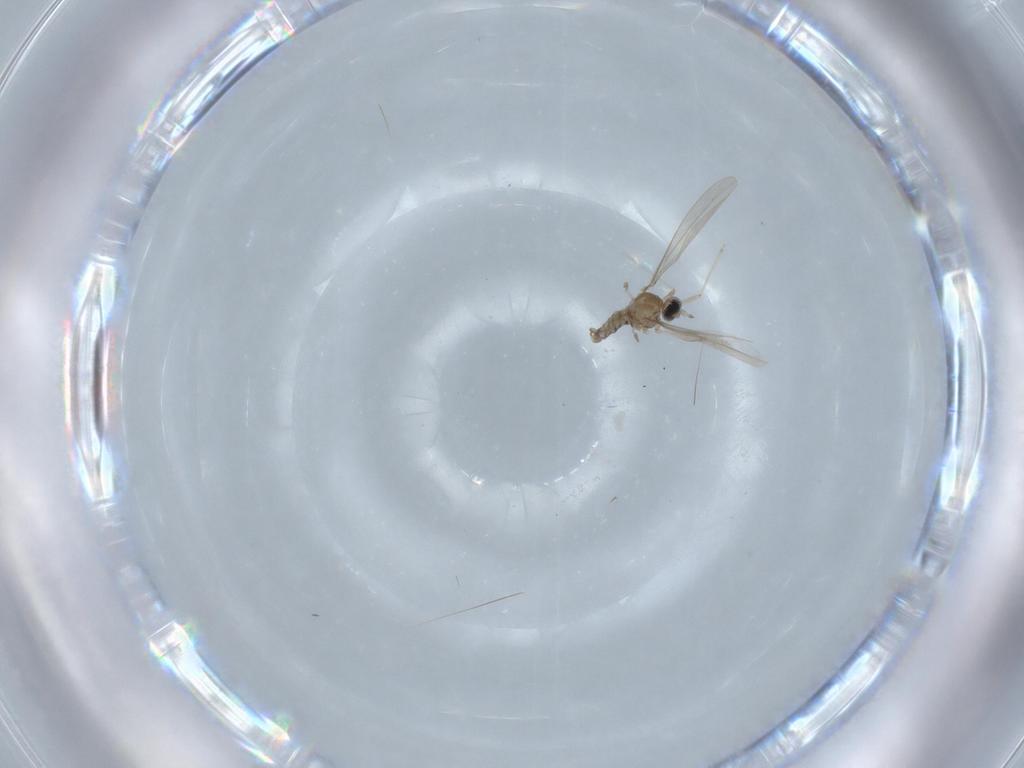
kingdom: Animalia
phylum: Arthropoda
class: Insecta
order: Diptera
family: Cecidomyiidae
